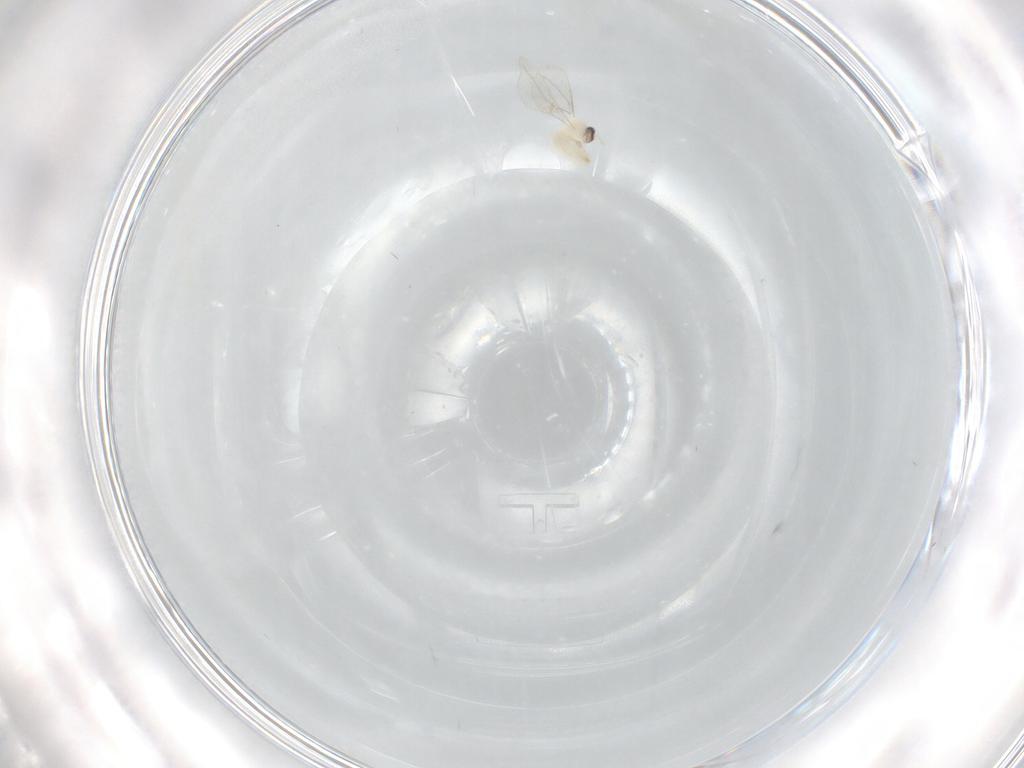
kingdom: Animalia
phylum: Arthropoda
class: Insecta
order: Diptera
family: Cecidomyiidae
